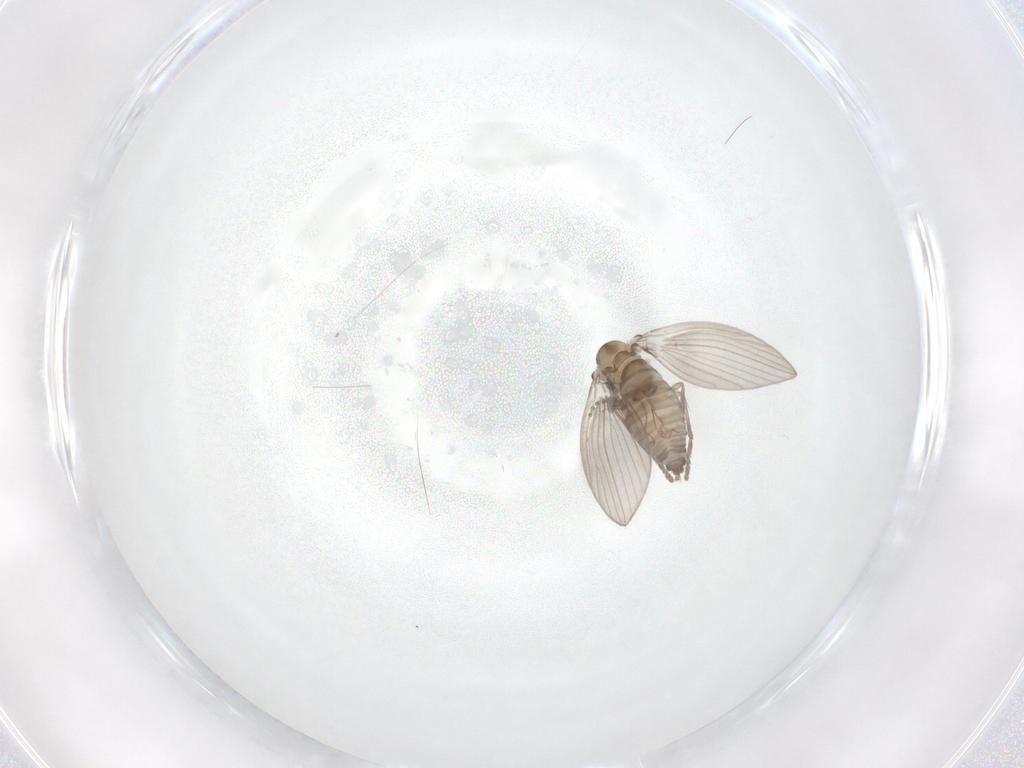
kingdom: Animalia
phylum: Arthropoda
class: Insecta
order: Diptera
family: Psychodidae
